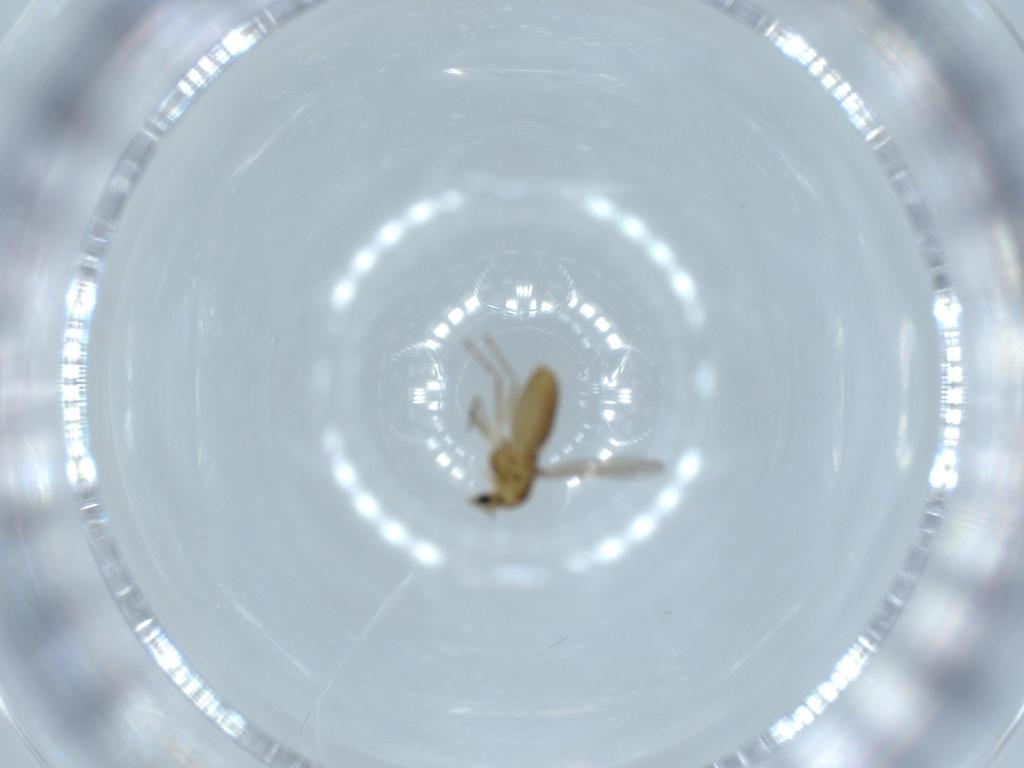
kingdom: Animalia
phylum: Arthropoda
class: Insecta
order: Diptera
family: Chironomidae
